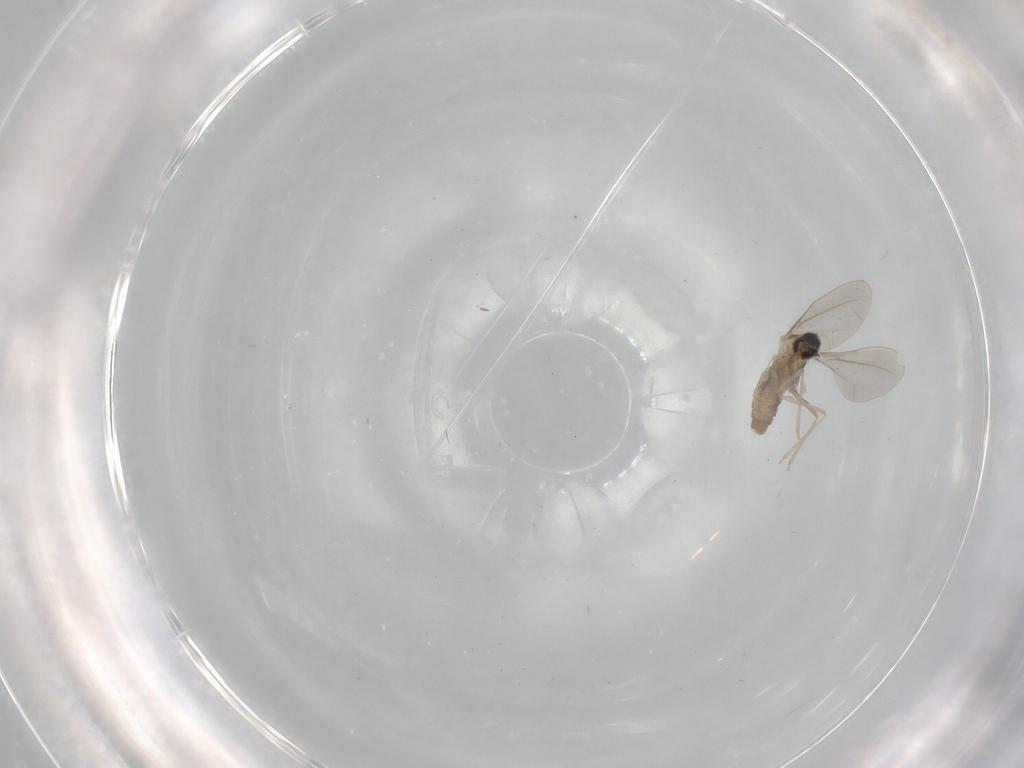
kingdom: Animalia
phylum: Arthropoda
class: Insecta
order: Diptera
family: Cecidomyiidae
